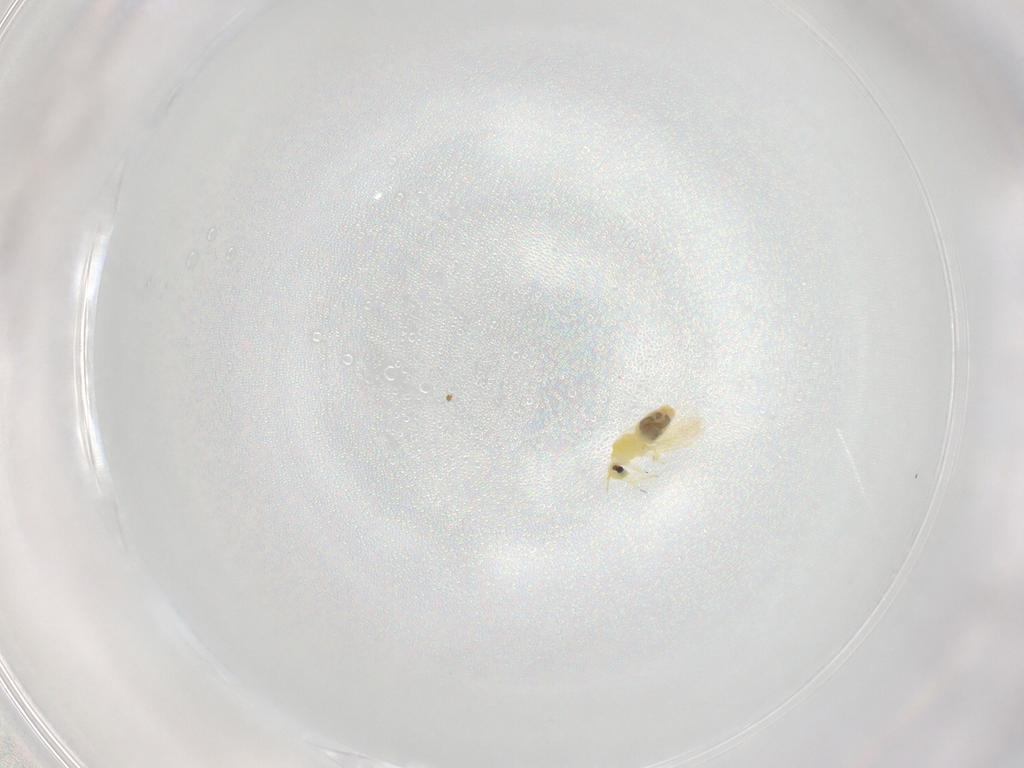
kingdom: Animalia
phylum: Arthropoda
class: Insecta
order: Hemiptera
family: Aleyrodidae
